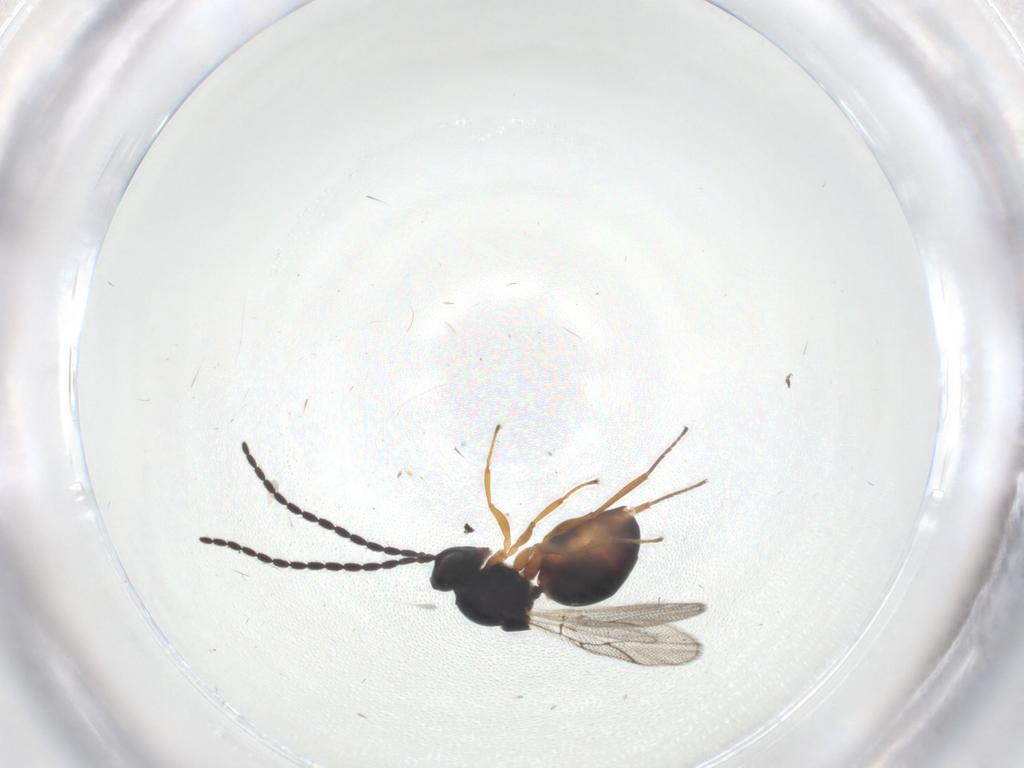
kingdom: Animalia
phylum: Arthropoda
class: Insecta
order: Hymenoptera
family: Figitidae
